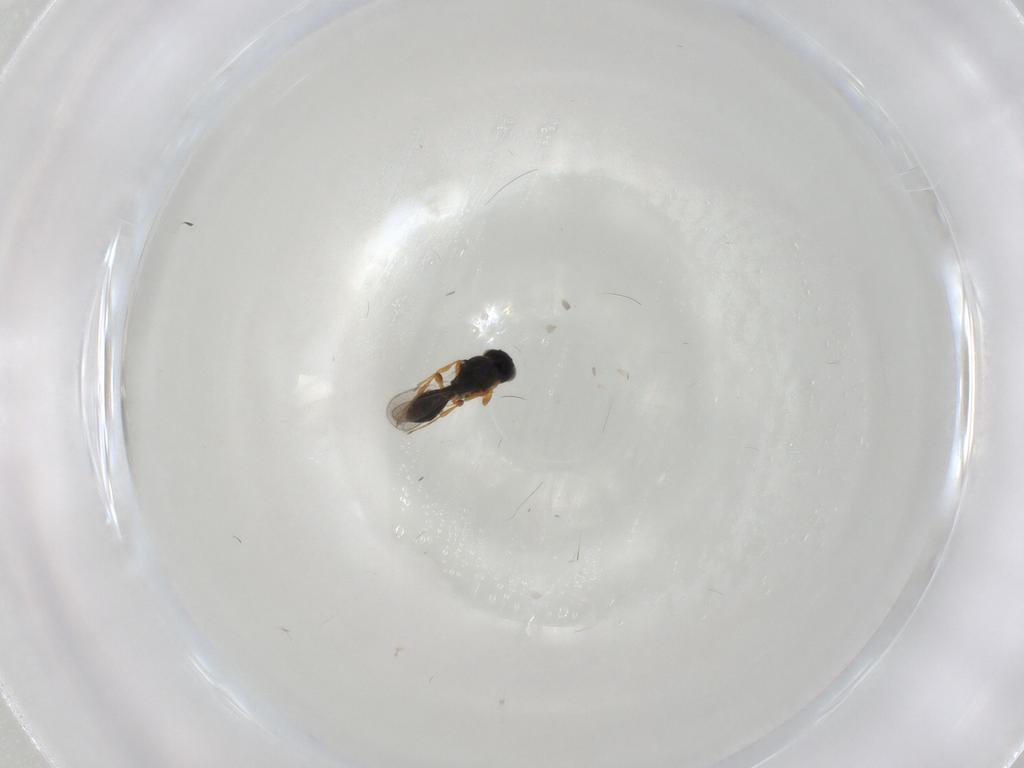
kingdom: Animalia
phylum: Arthropoda
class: Insecta
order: Hymenoptera
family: Platygastridae
